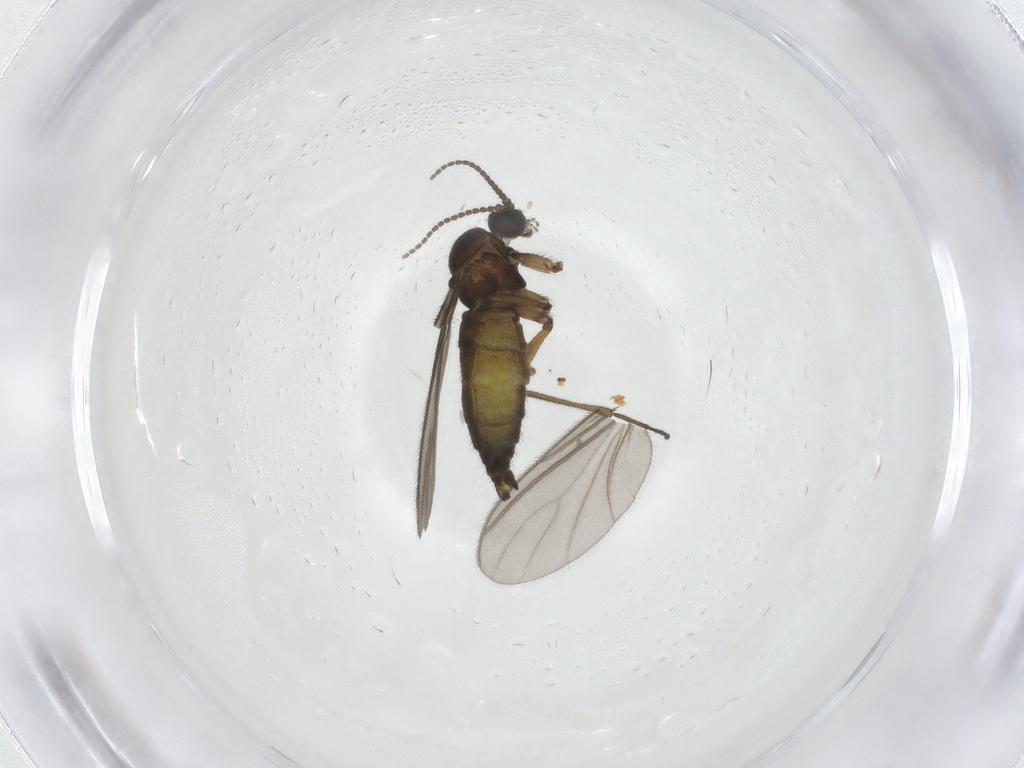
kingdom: Animalia
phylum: Arthropoda
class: Insecta
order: Diptera
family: Sciaridae
